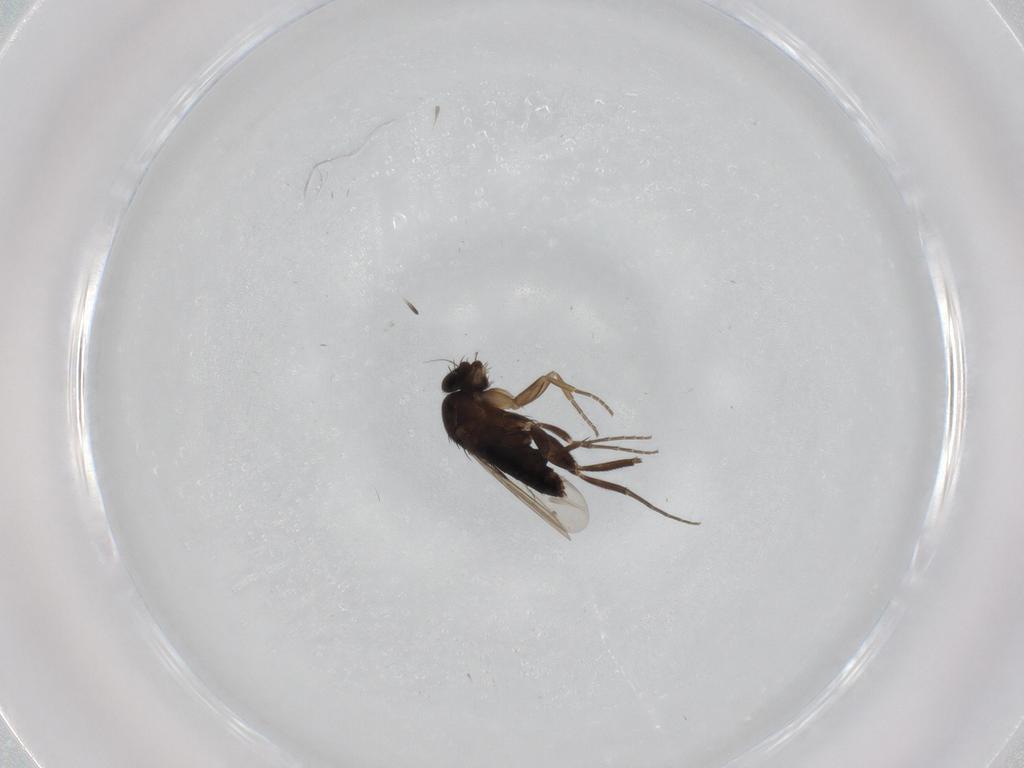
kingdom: Animalia
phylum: Arthropoda
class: Insecta
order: Diptera
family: Phoridae
